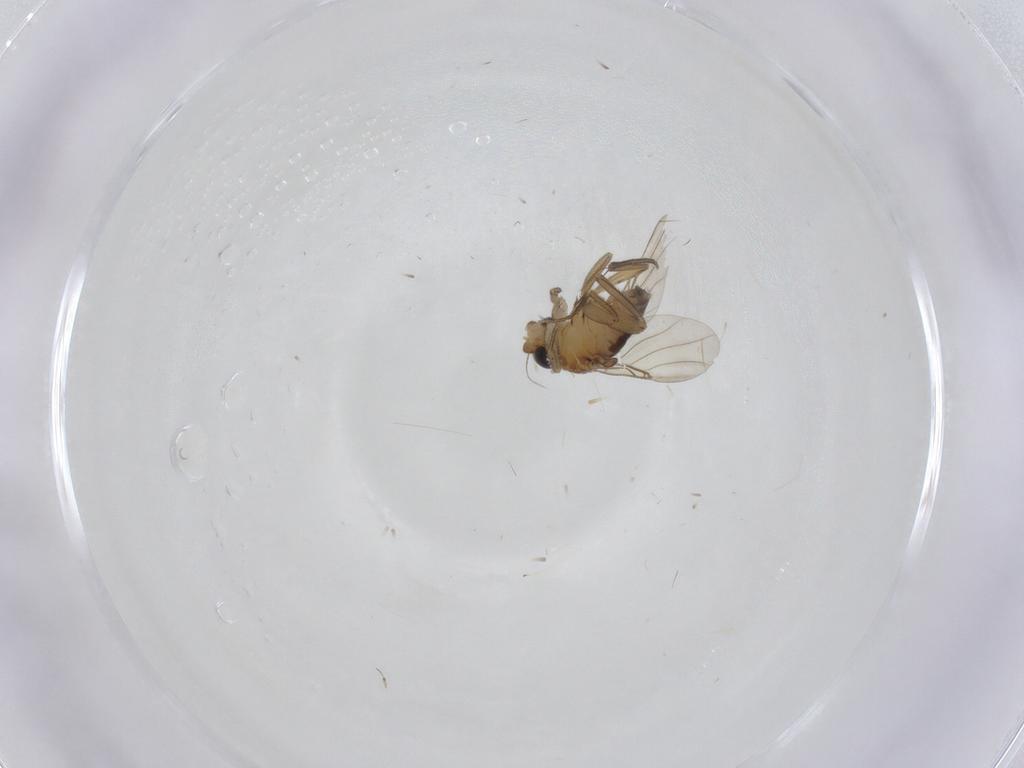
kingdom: Animalia
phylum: Arthropoda
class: Insecta
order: Diptera
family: Phoridae
